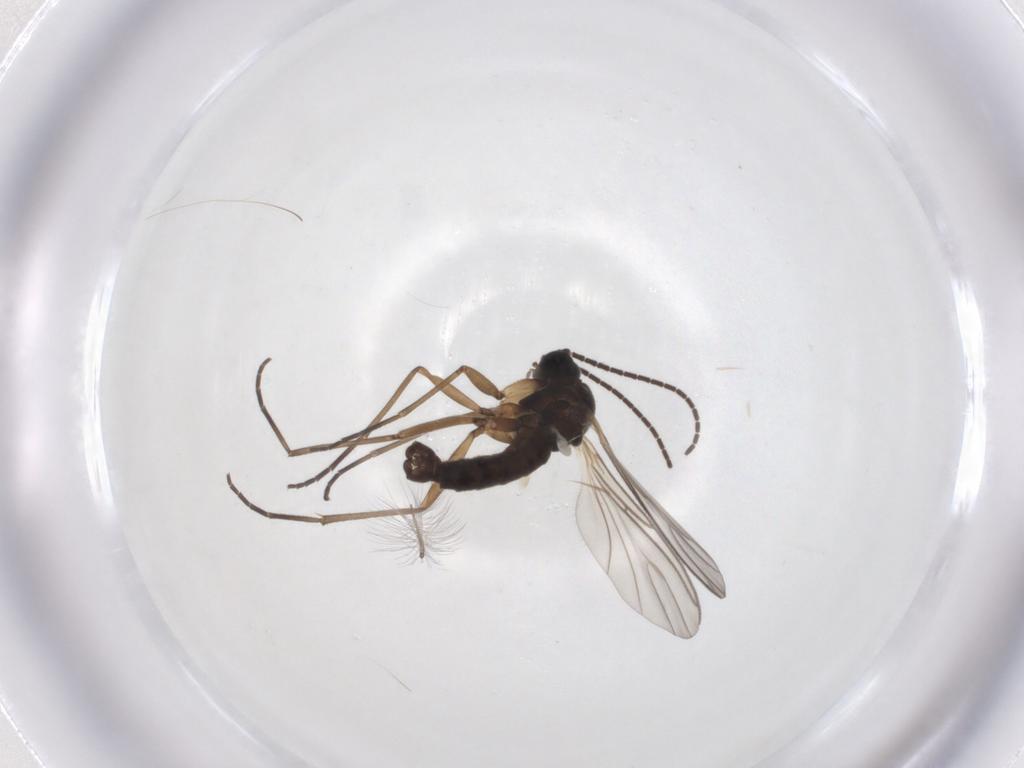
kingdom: Animalia
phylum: Arthropoda
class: Insecta
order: Diptera
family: Sciaridae
